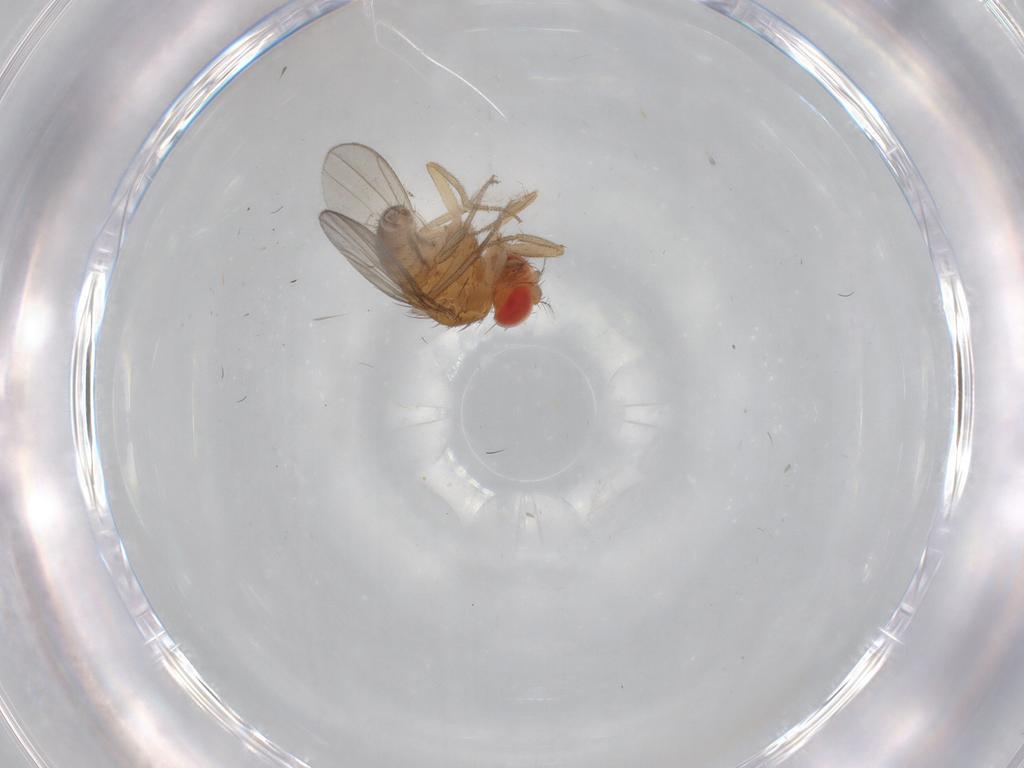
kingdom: Animalia
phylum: Arthropoda
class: Insecta
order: Diptera
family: Drosophilidae
